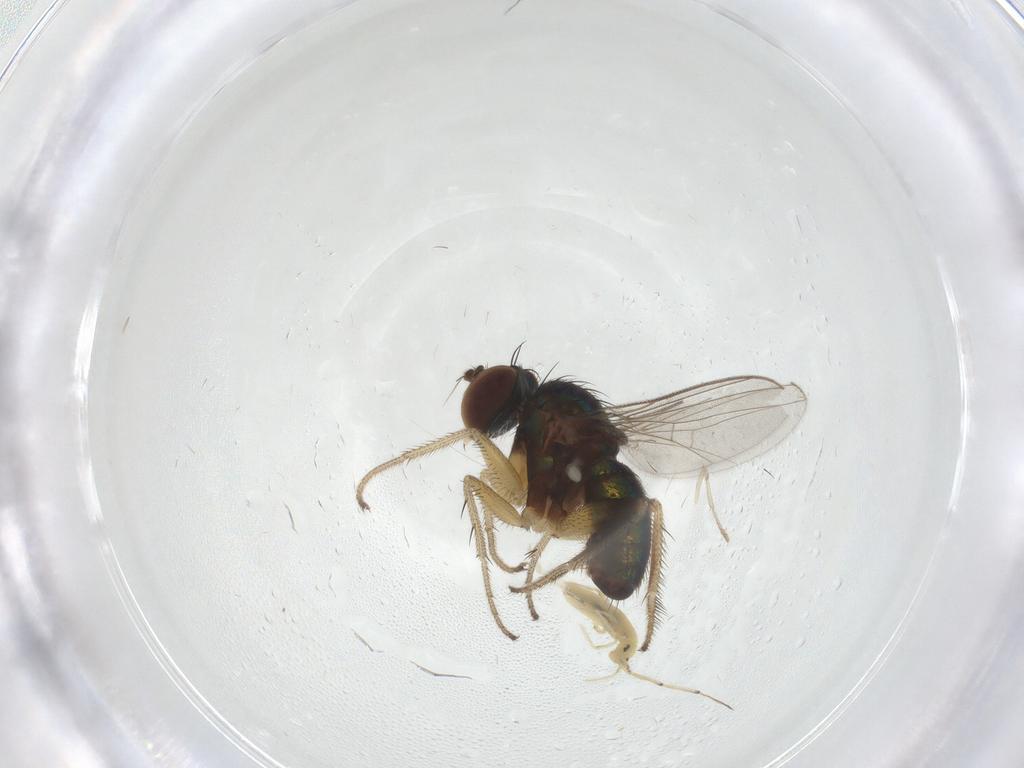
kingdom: Animalia
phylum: Arthropoda
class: Insecta
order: Diptera
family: Psychodidae
